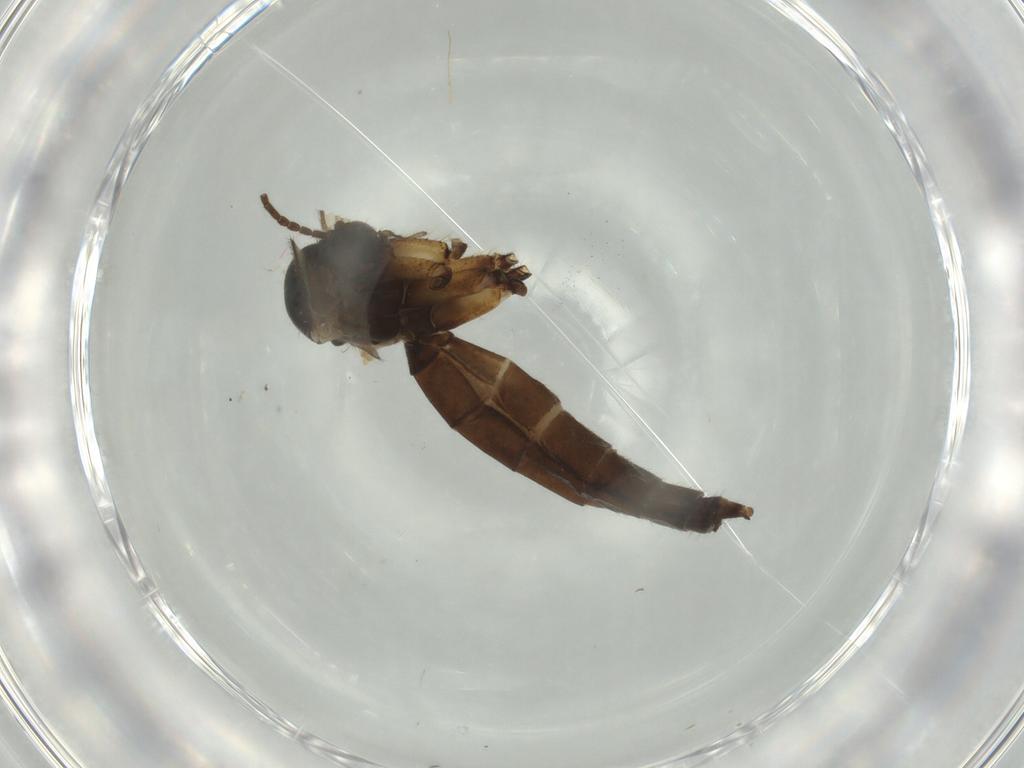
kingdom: Animalia
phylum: Arthropoda
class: Insecta
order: Diptera
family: Mycetophilidae
